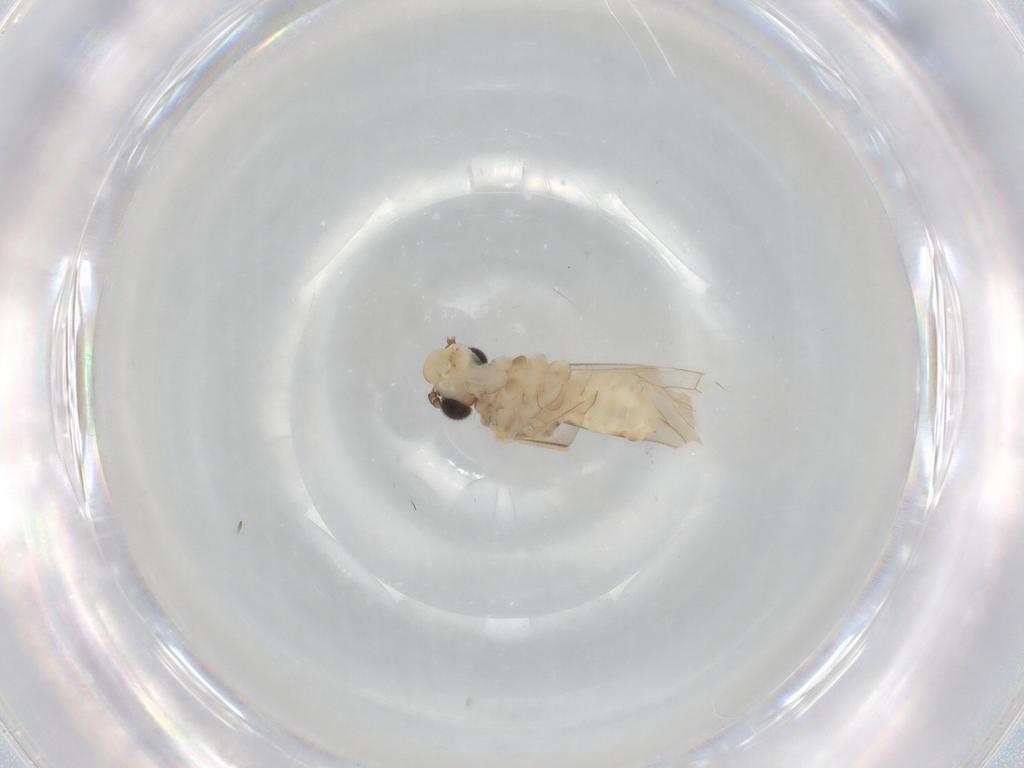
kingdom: Animalia
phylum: Arthropoda
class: Insecta
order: Psocodea
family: Caeciliusidae
